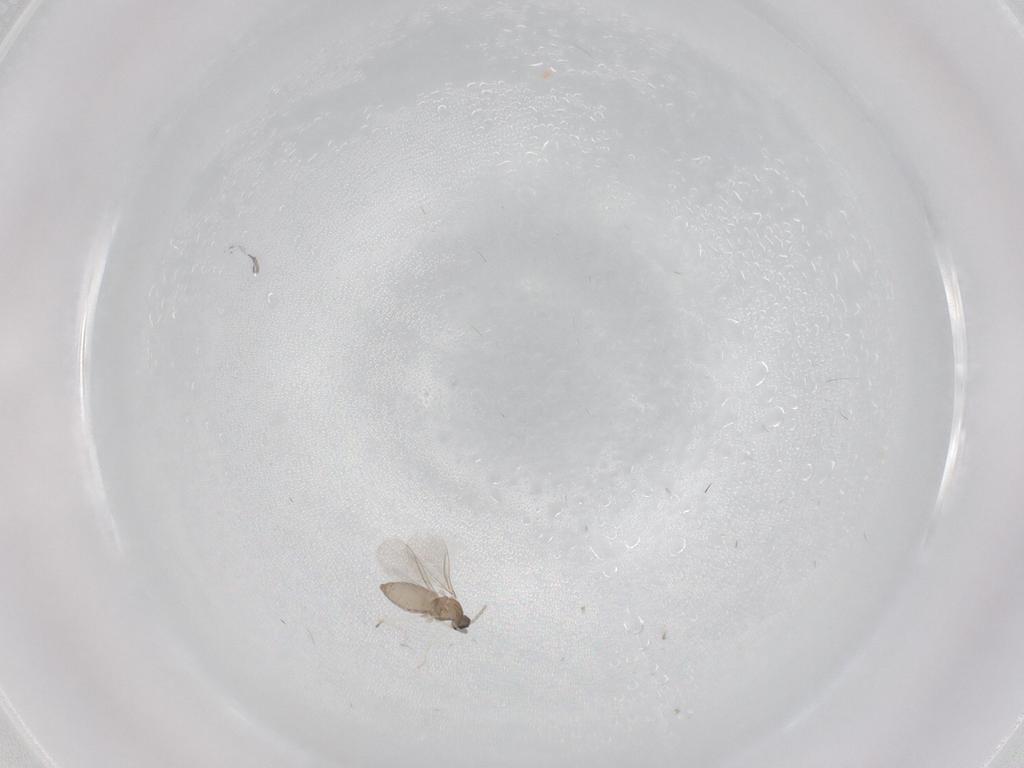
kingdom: Animalia
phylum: Arthropoda
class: Insecta
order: Diptera
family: Cecidomyiidae
